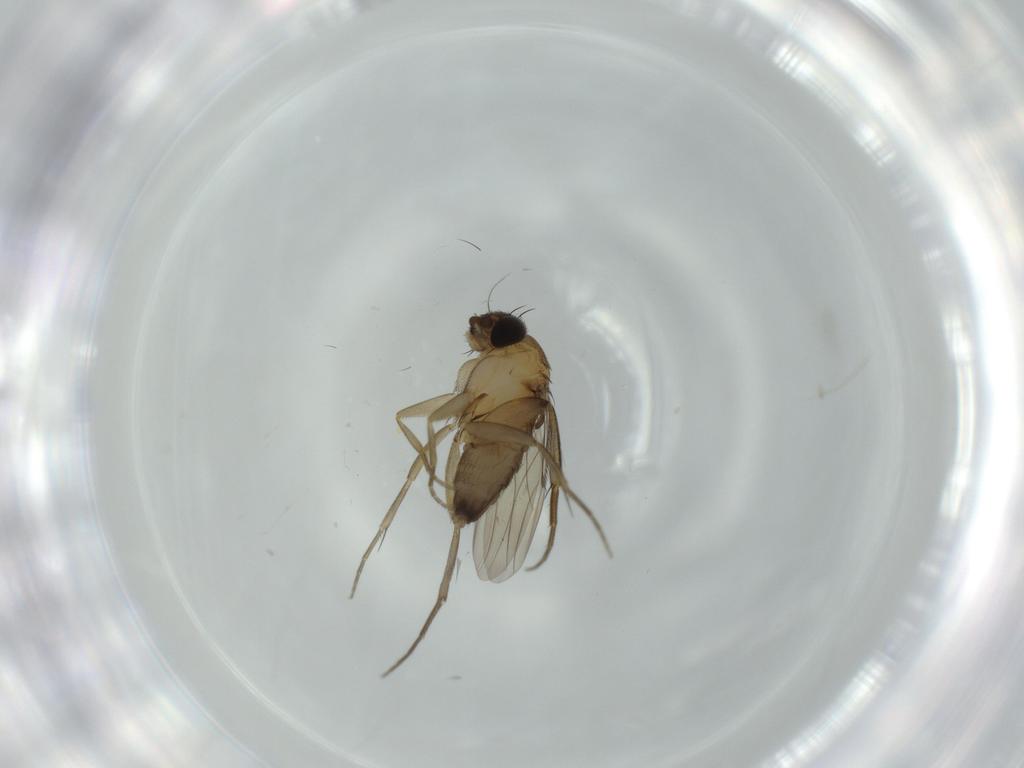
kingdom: Animalia
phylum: Arthropoda
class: Insecta
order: Diptera
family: Phoridae
